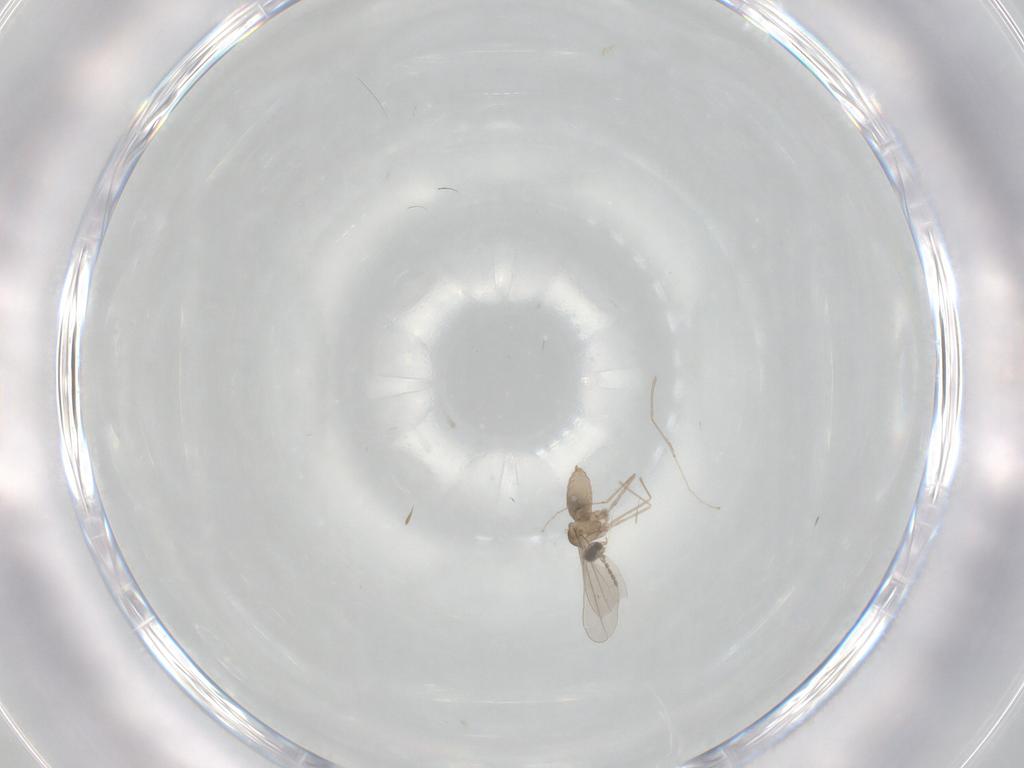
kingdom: Animalia
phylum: Arthropoda
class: Insecta
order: Diptera
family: Cecidomyiidae
